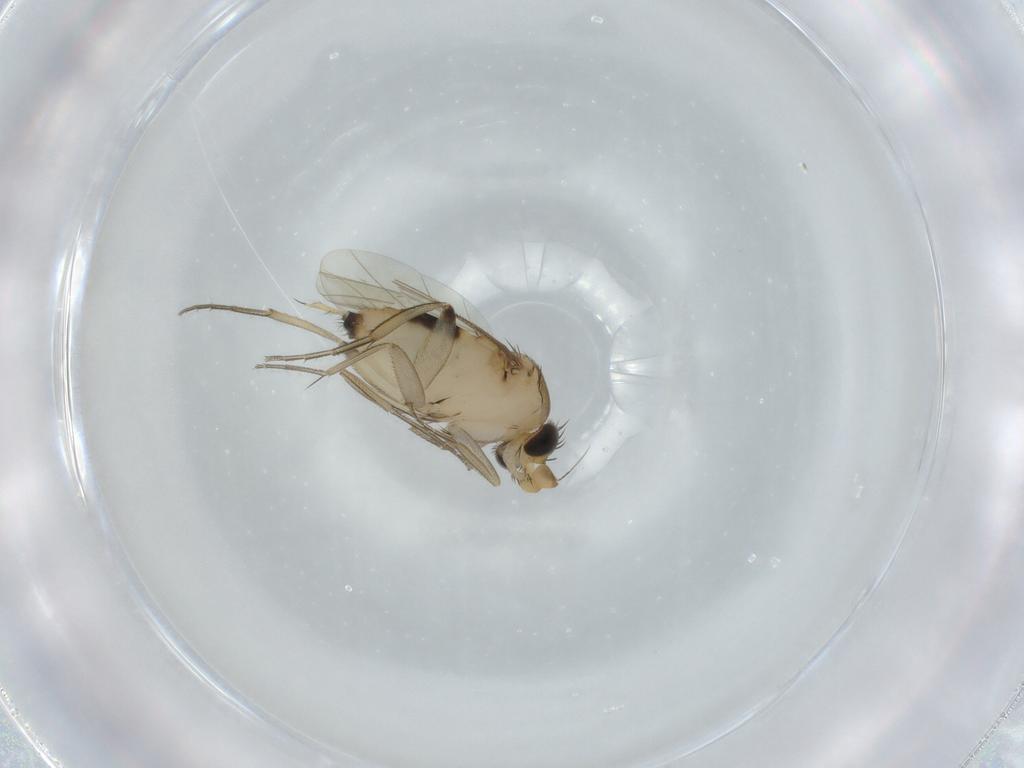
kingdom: Animalia
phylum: Arthropoda
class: Insecta
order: Diptera
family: Phoridae
